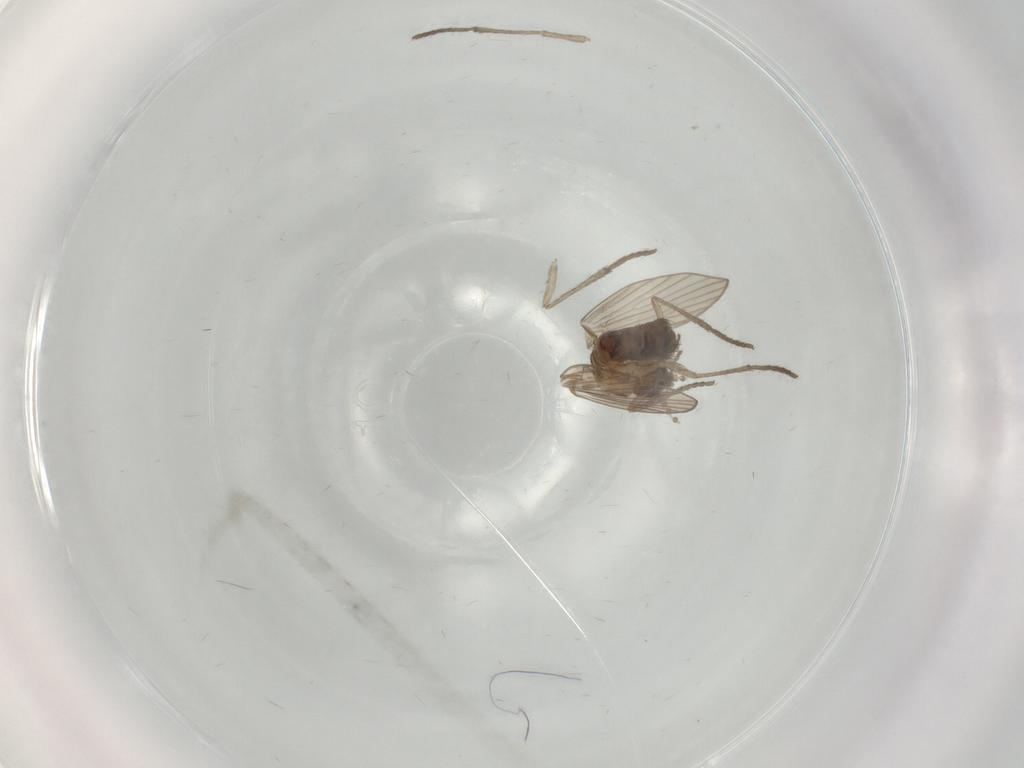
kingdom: Animalia
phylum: Arthropoda
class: Insecta
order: Diptera
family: Psychodidae
